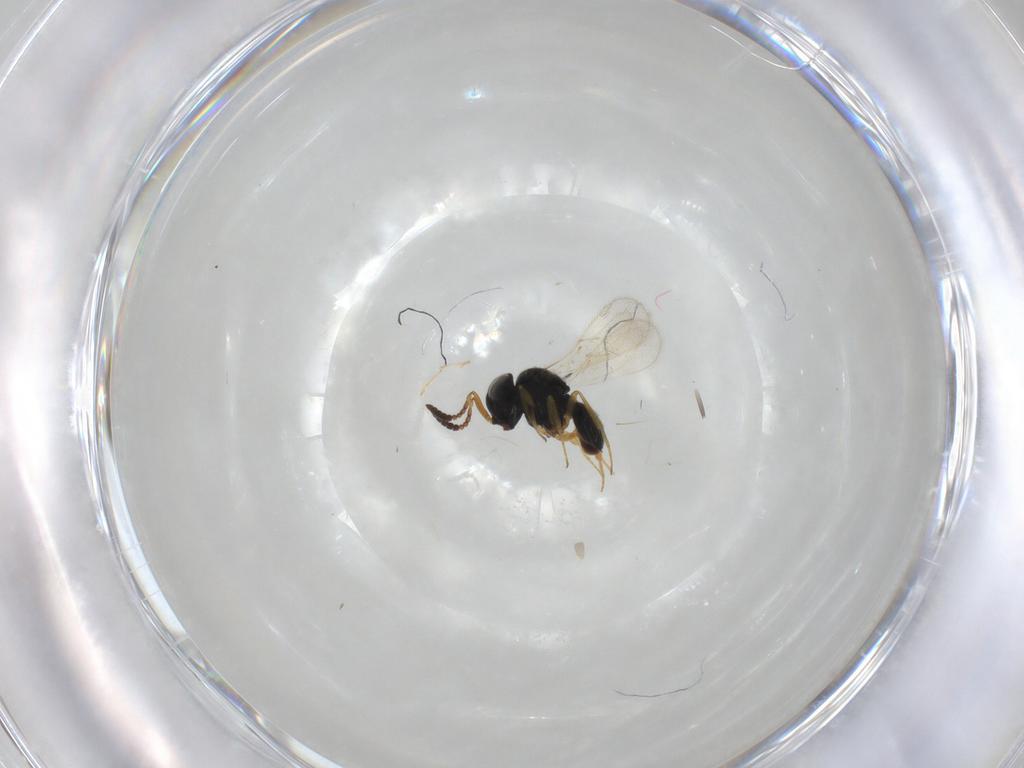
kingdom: Animalia
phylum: Arthropoda
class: Insecta
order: Hymenoptera
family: Scelionidae
